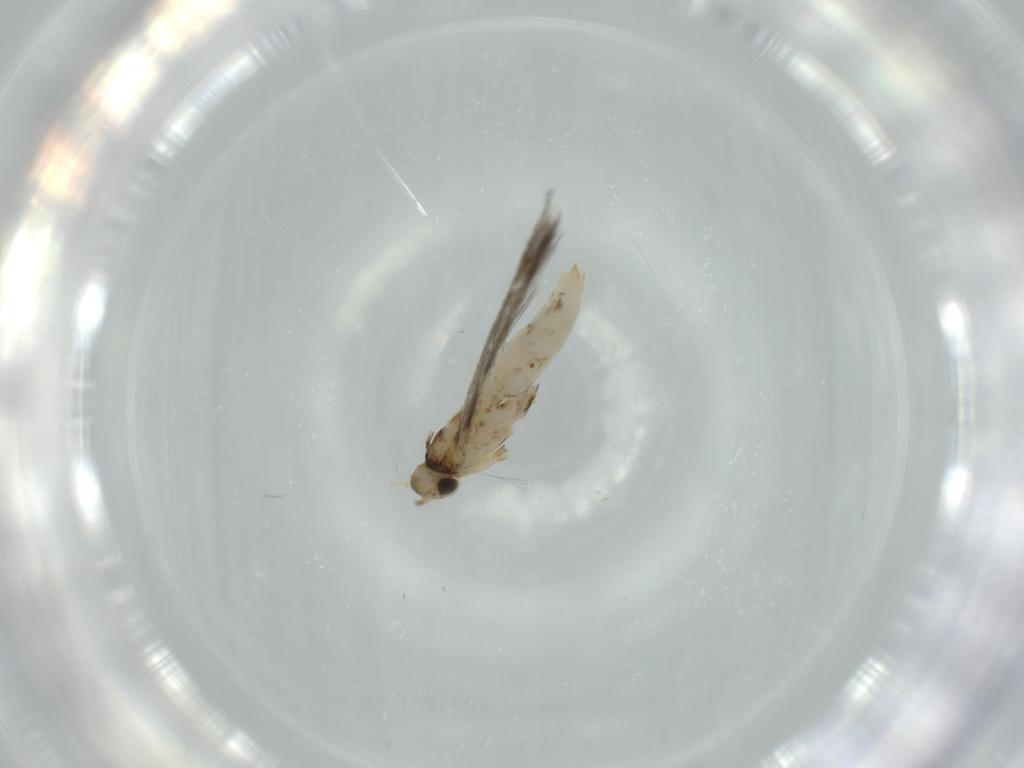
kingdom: Animalia
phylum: Arthropoda
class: Insecta
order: Lepidoptera
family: Gracillariidae
